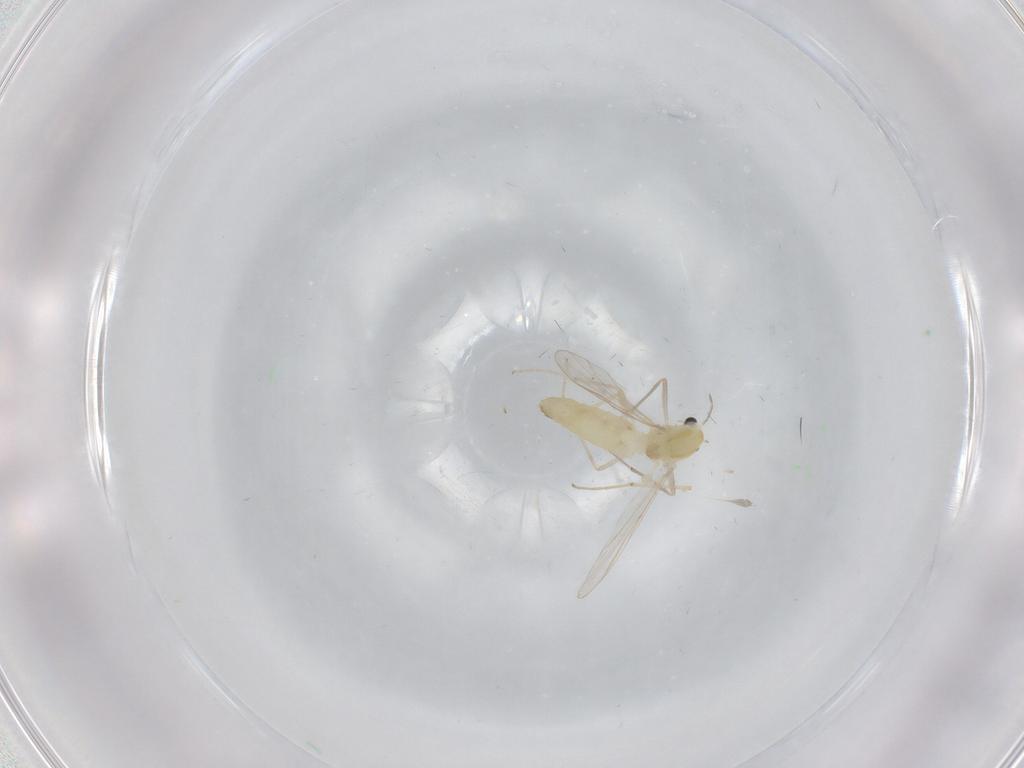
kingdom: Animalia
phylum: Arthropoda
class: Insecta
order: Diptera
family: Chironomidae
